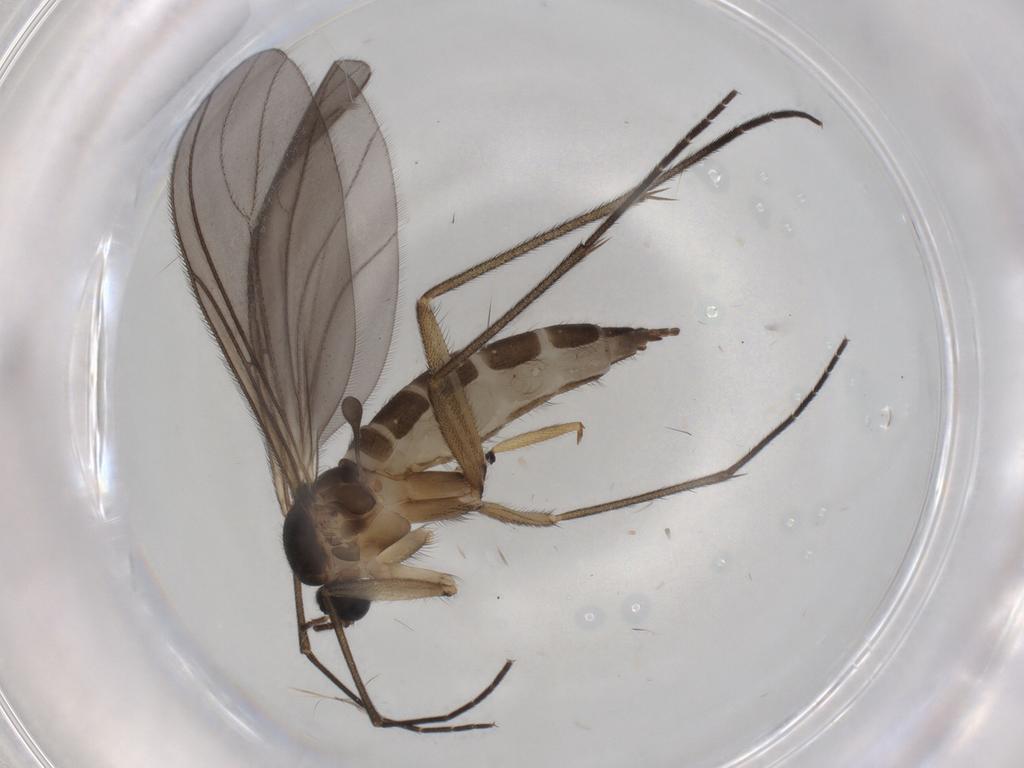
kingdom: Animalia
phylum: Arthropoda
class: Insecta
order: Diptera
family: Sciaridae
